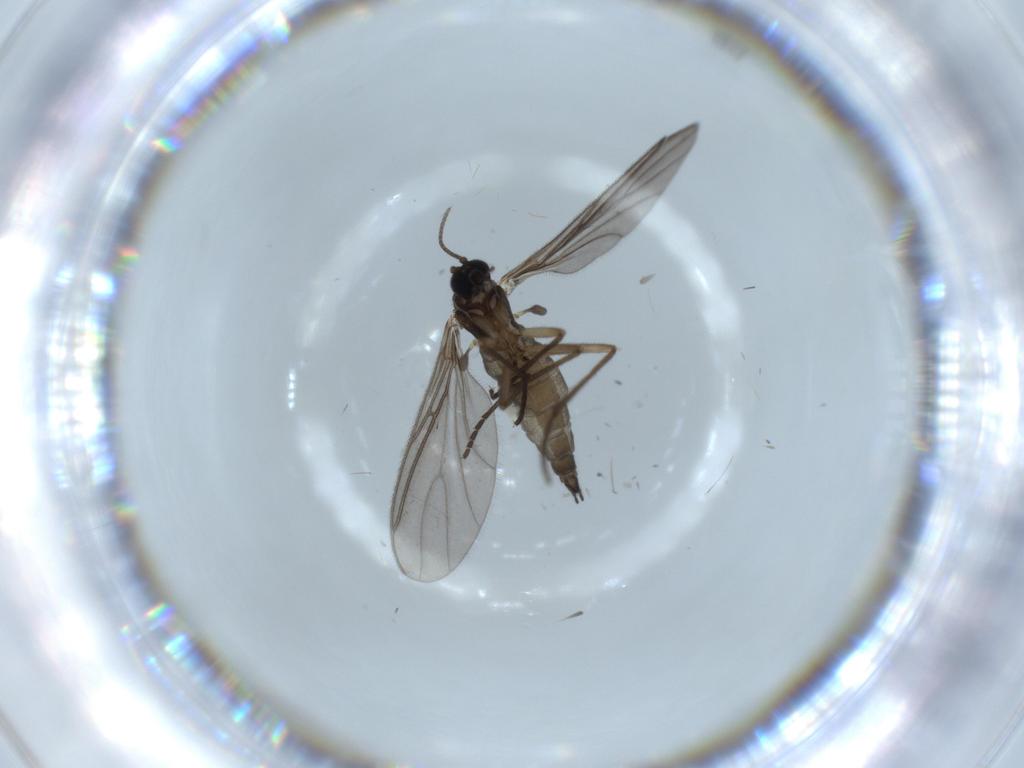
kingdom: Animalia
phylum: Arthropoda
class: Insecta
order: Diptera
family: Sciaridae
